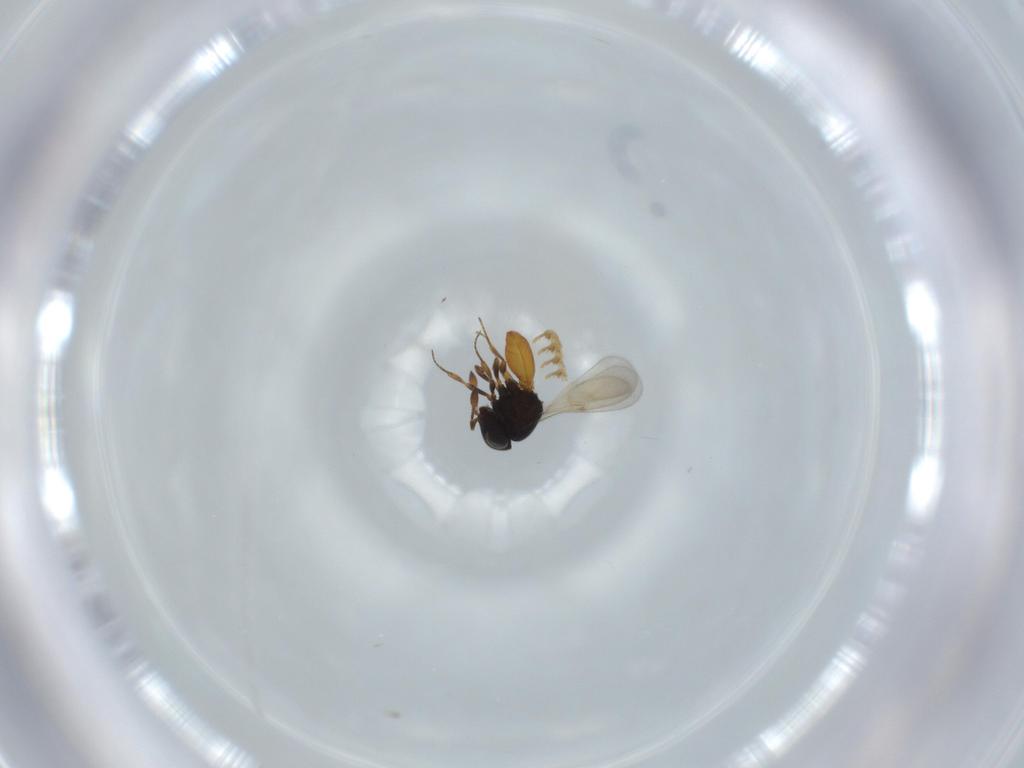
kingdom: Animalia
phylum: Arthropoda
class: Insecta
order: Hymenoptera
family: Scelionidae
